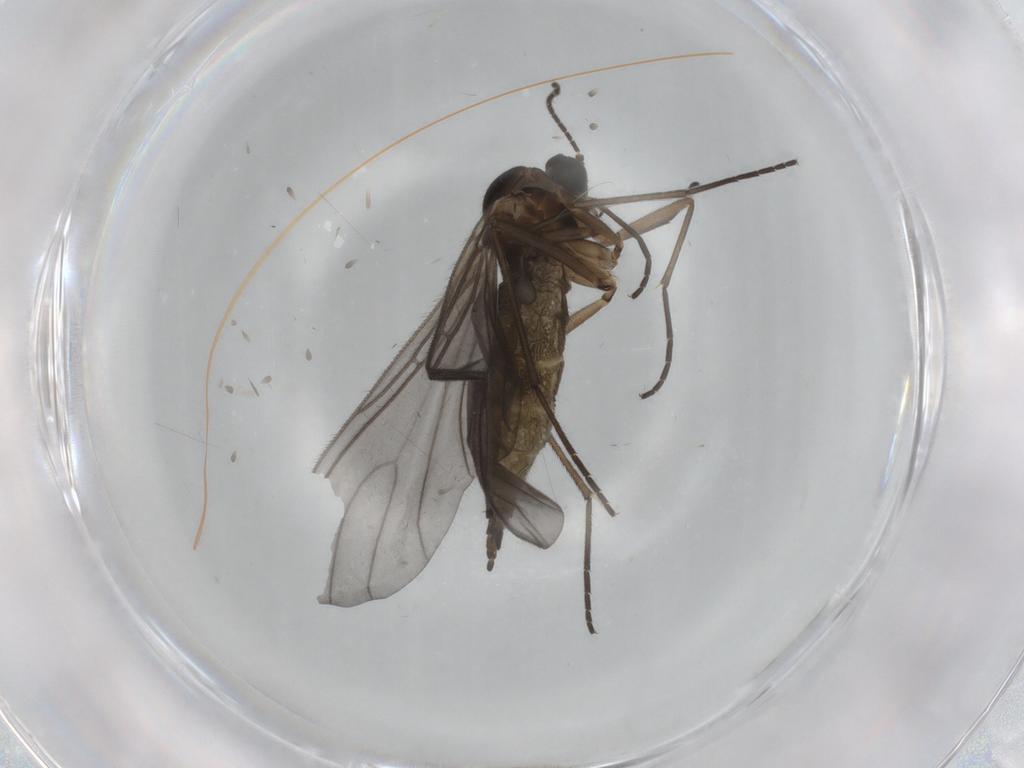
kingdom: Animalia
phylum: Arthropoda
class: Insecta
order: Diptera
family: Sciaridae
